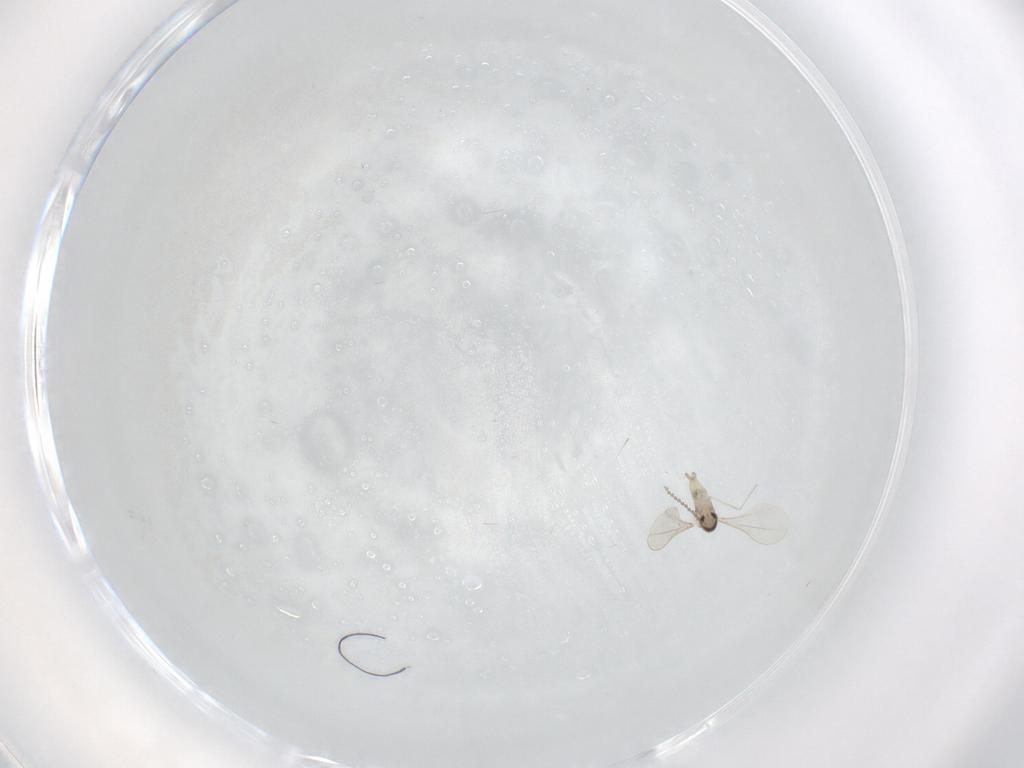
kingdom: Animalia
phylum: Arthropoda
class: Insecta
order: Diptera
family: Cecidomyiidae
